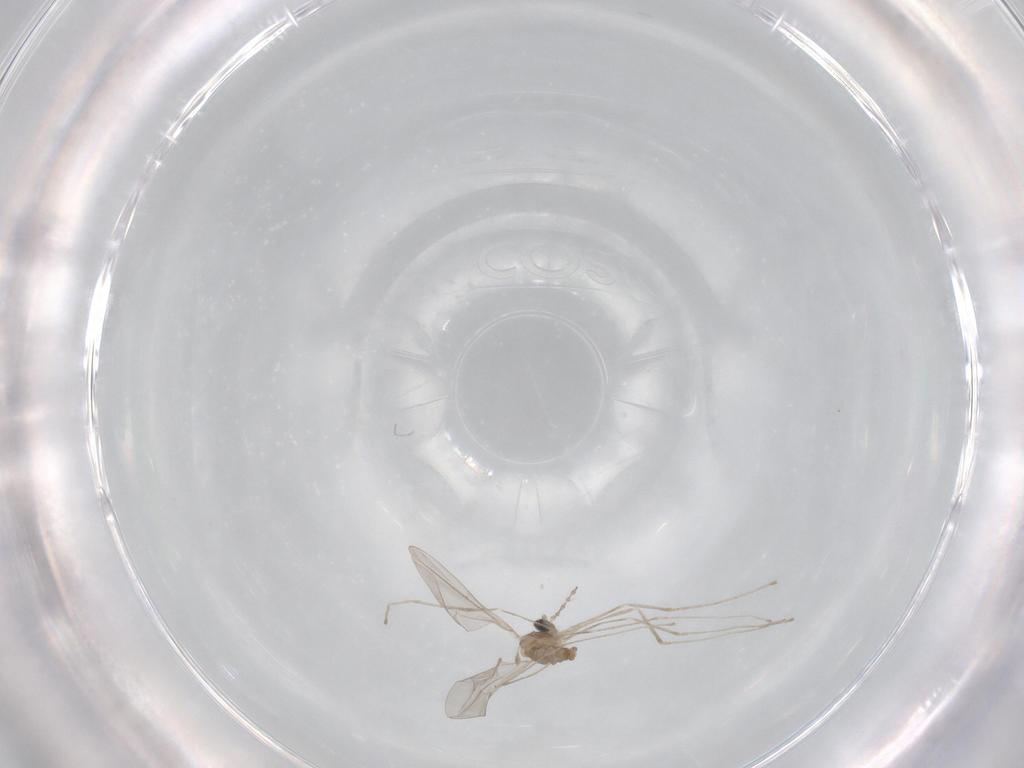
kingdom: Animalia
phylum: Arthropoda
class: Insecta
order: Diptera
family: Cecidomyiidae
